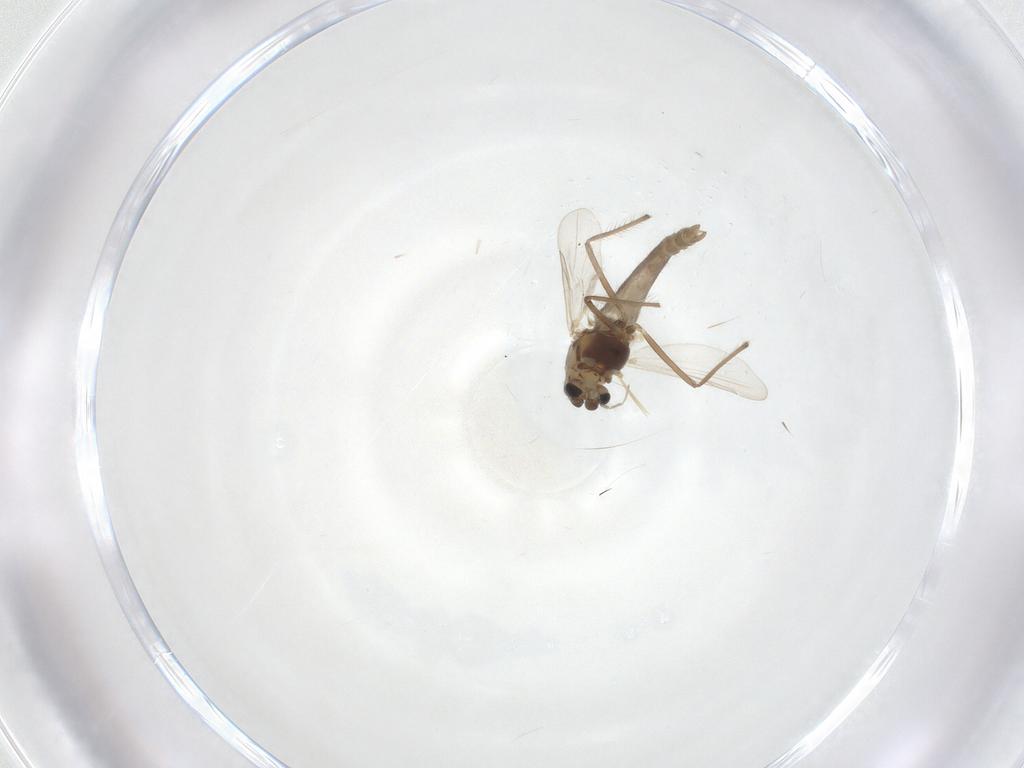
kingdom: Animalia
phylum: Arthropoda
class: Insecta
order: Diptera
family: Chironomidae
